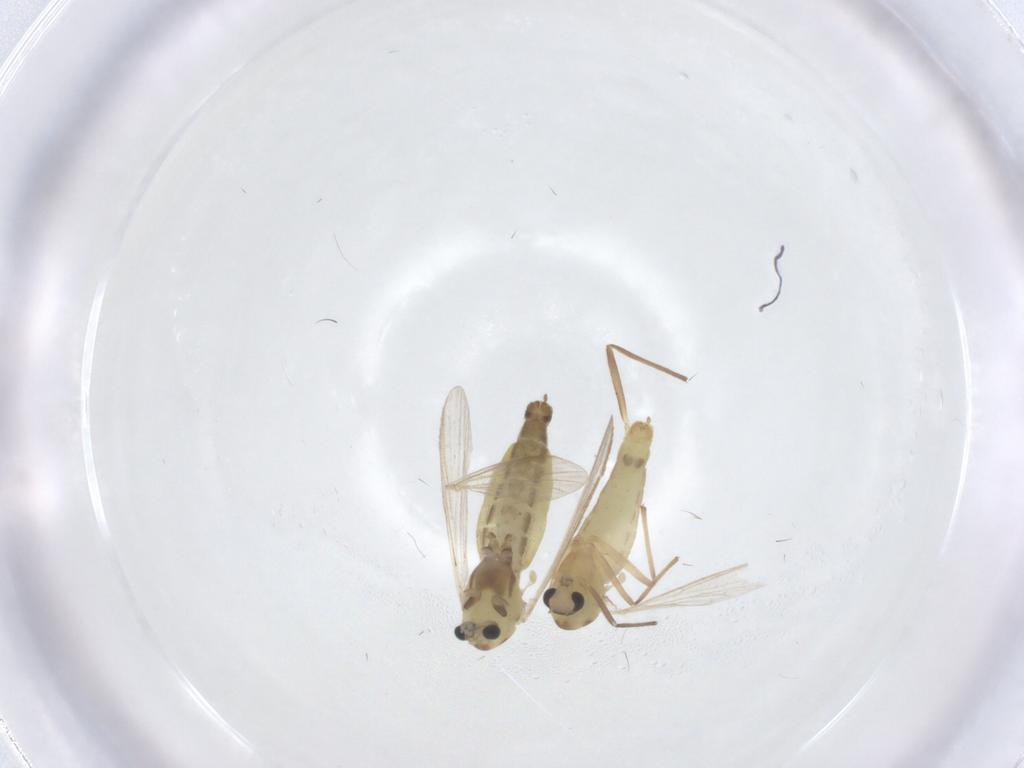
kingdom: Animalia
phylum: Arthropoda
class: Insecta
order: Diptera
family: Chironomidae
